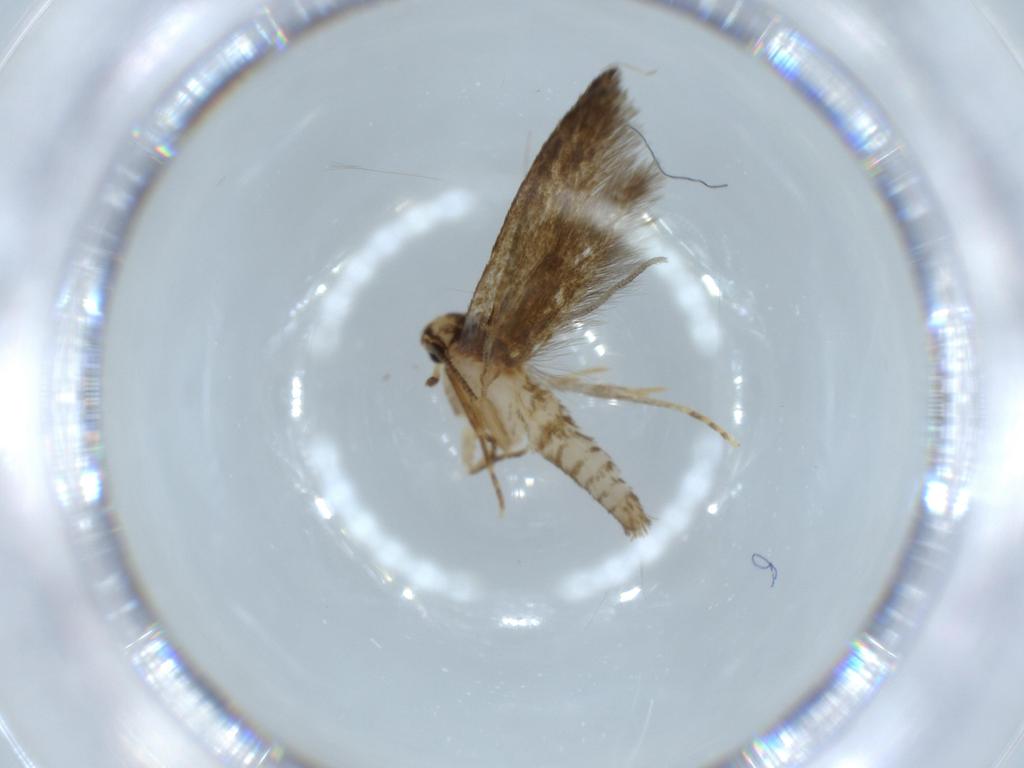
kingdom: Animalia
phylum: Arthropoda
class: Insecta
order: Lepidoptera
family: Tineidae
